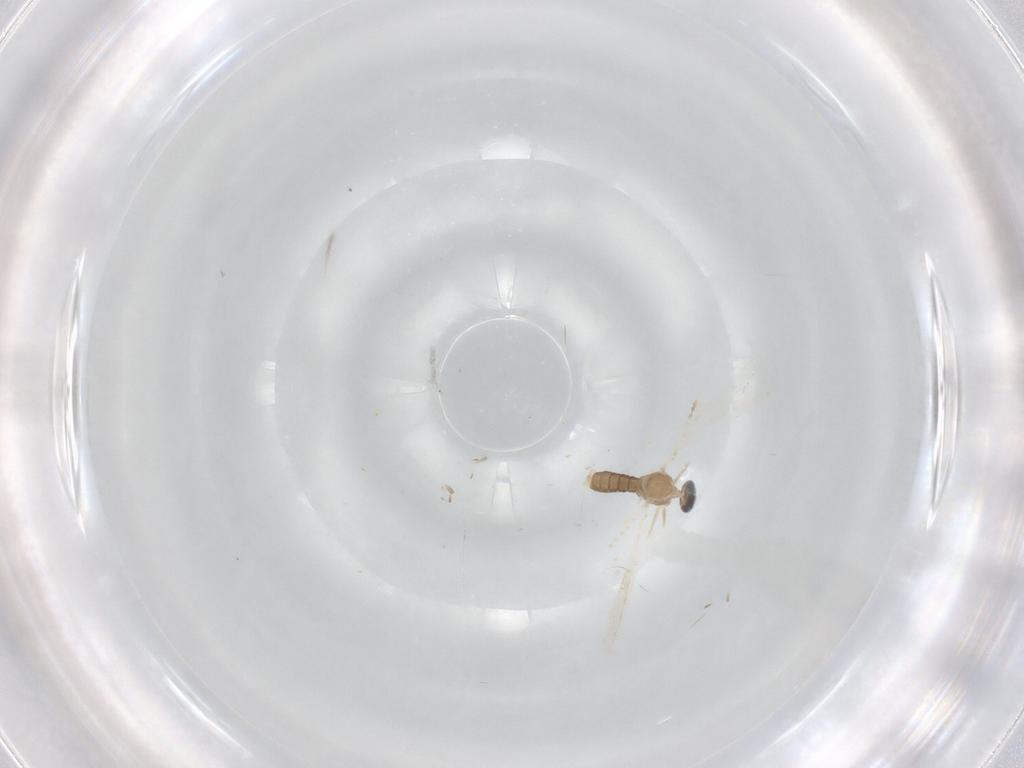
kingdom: Animalia
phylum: Arthropoda
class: Insecta
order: Diptera
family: Cecidomyiidae
